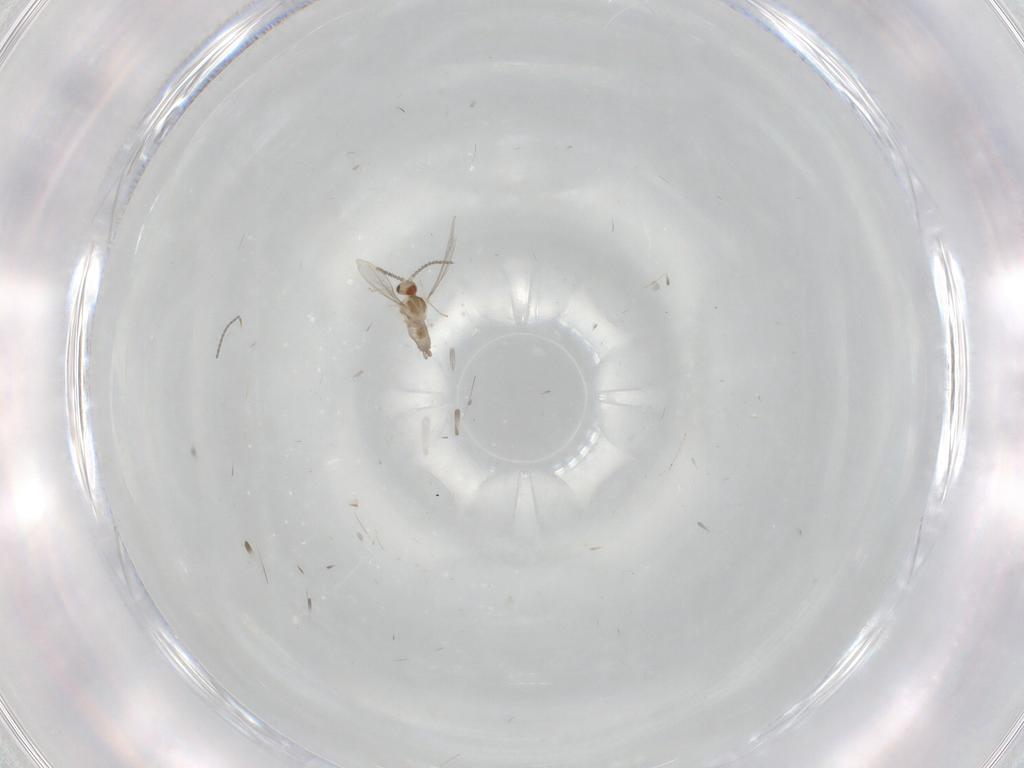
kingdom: Animalia
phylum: Arthropoda
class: Insecta
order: Diptera
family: Cecidomyiidae
